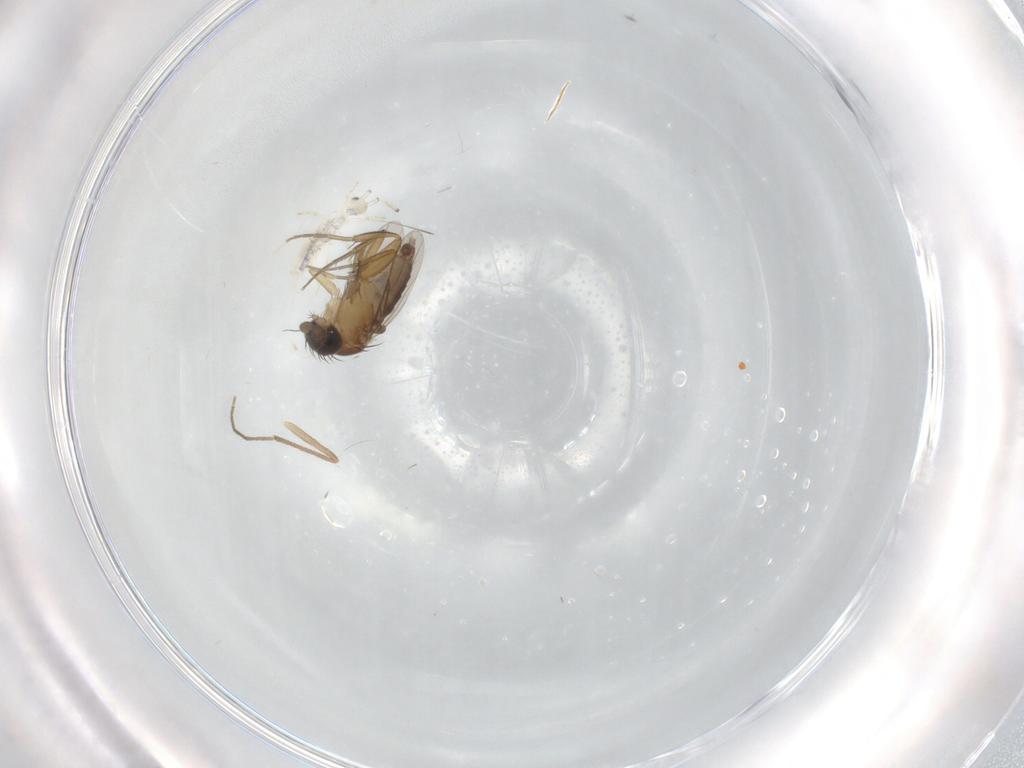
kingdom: Animalia
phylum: Arthropoda
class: Insecta
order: Diptera
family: Phoridae
